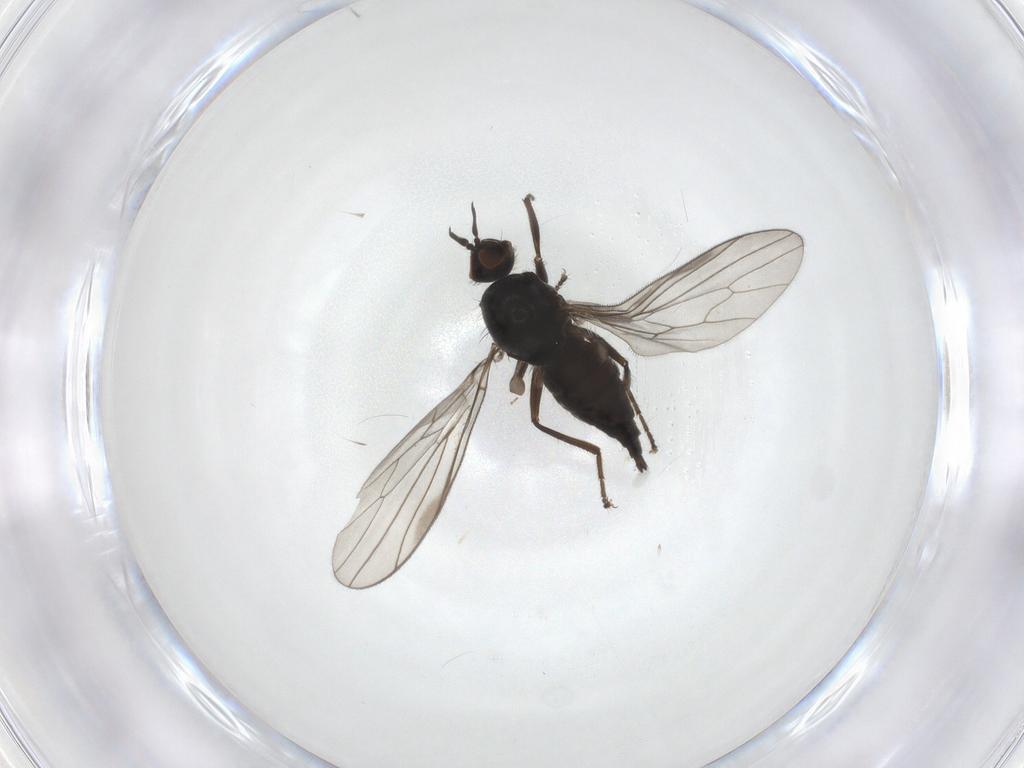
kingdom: Animalia
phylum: Arthropoda
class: Insecta
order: Diptera
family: Hybotidae
